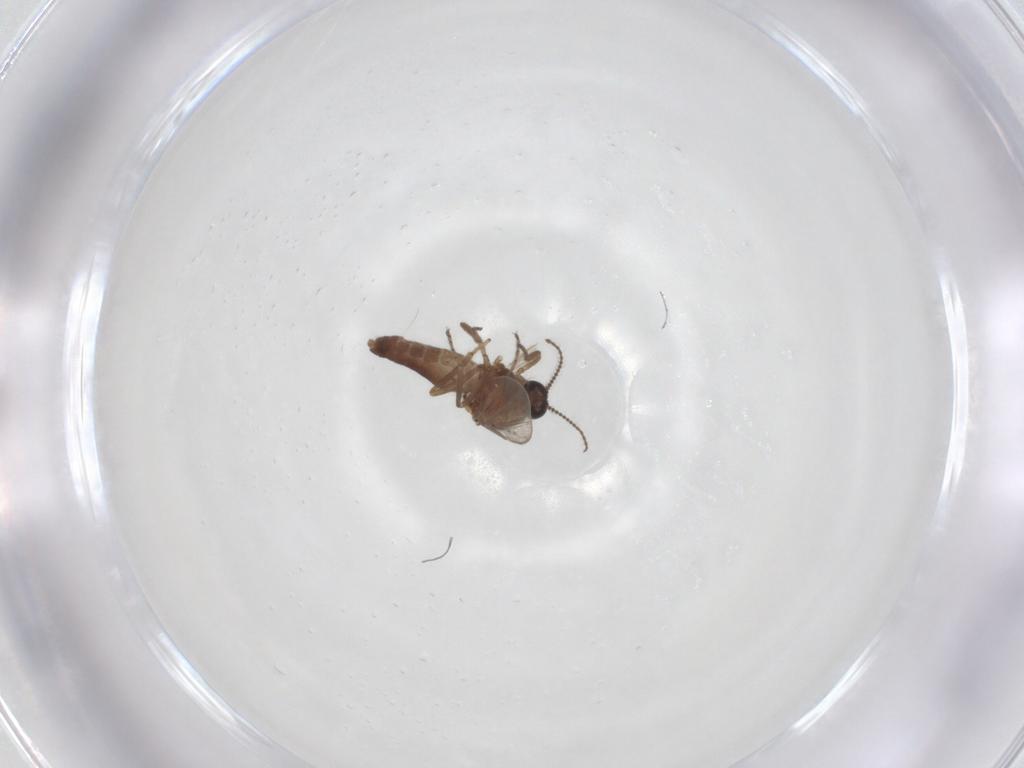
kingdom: Animalia
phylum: Arthropoda
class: Insecta
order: Diptera
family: Ceratopogonidae
